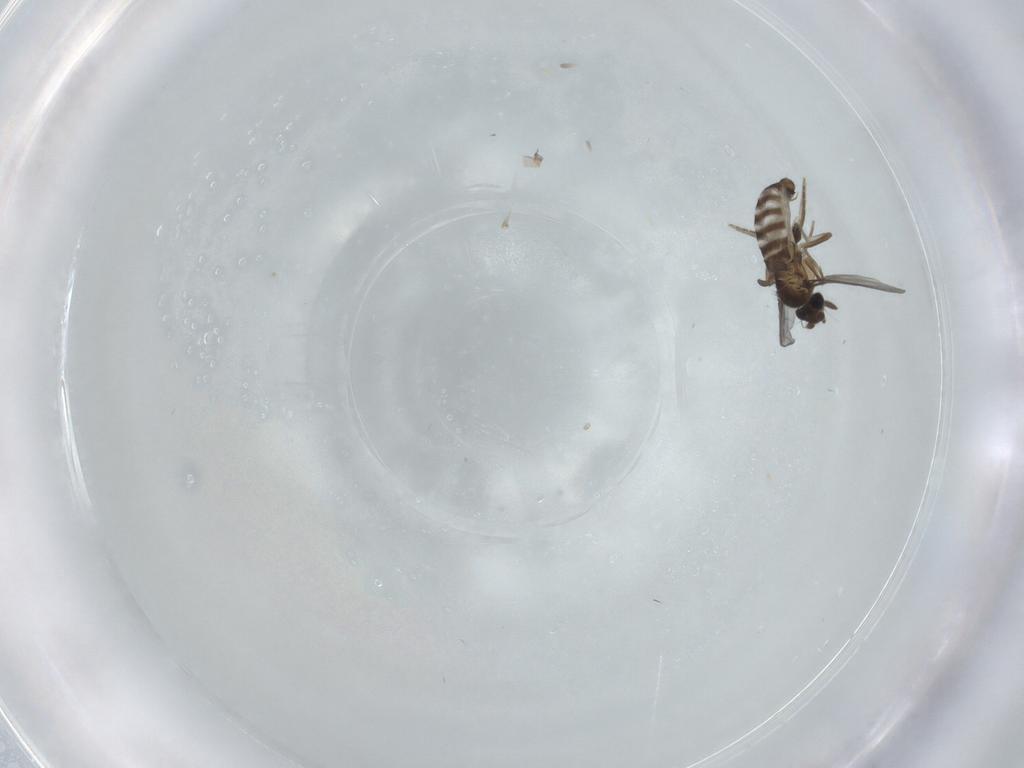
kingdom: Animalia
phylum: Arthropoda
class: Insecta
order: Diptera
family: Chironomidae
